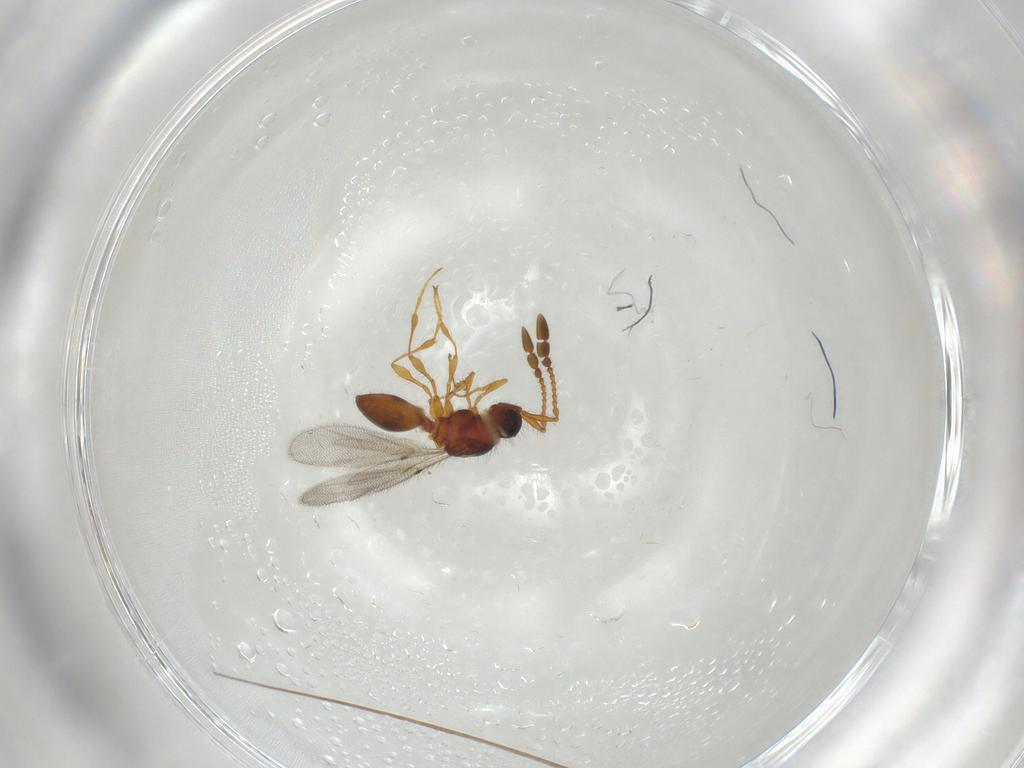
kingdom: Animalia
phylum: Arthropoda
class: Insecta
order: Hymenoptera
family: Diapriidae
